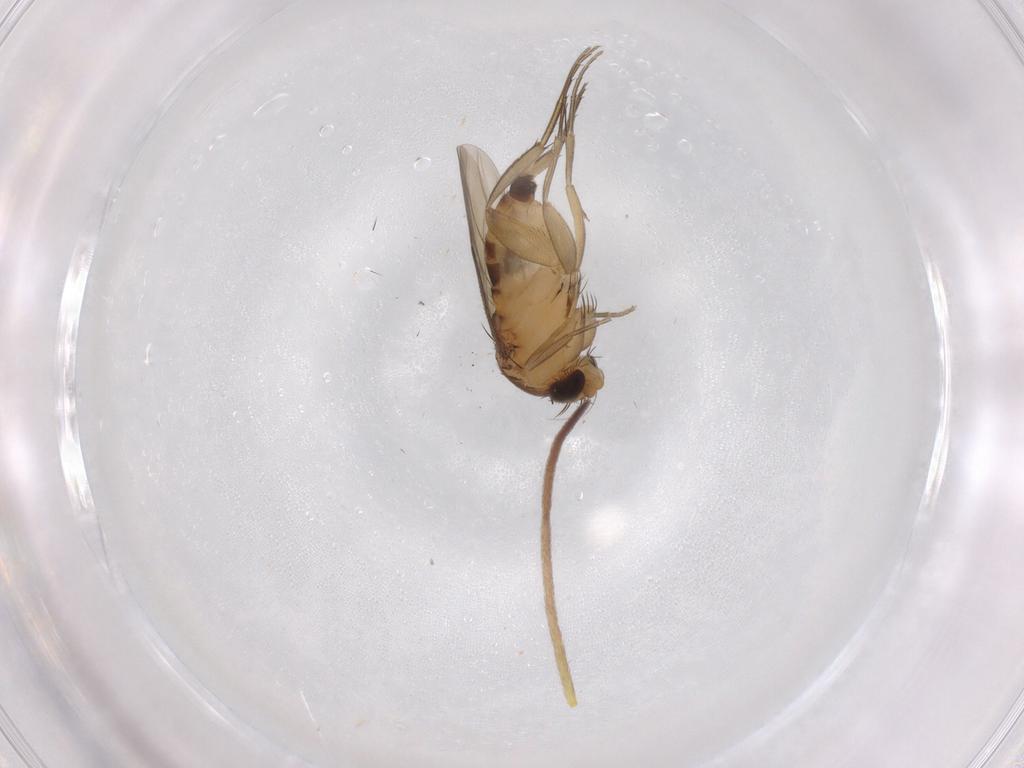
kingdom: Animalia
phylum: Arthropoda
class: Insecta
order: Diptera
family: Phoridae
